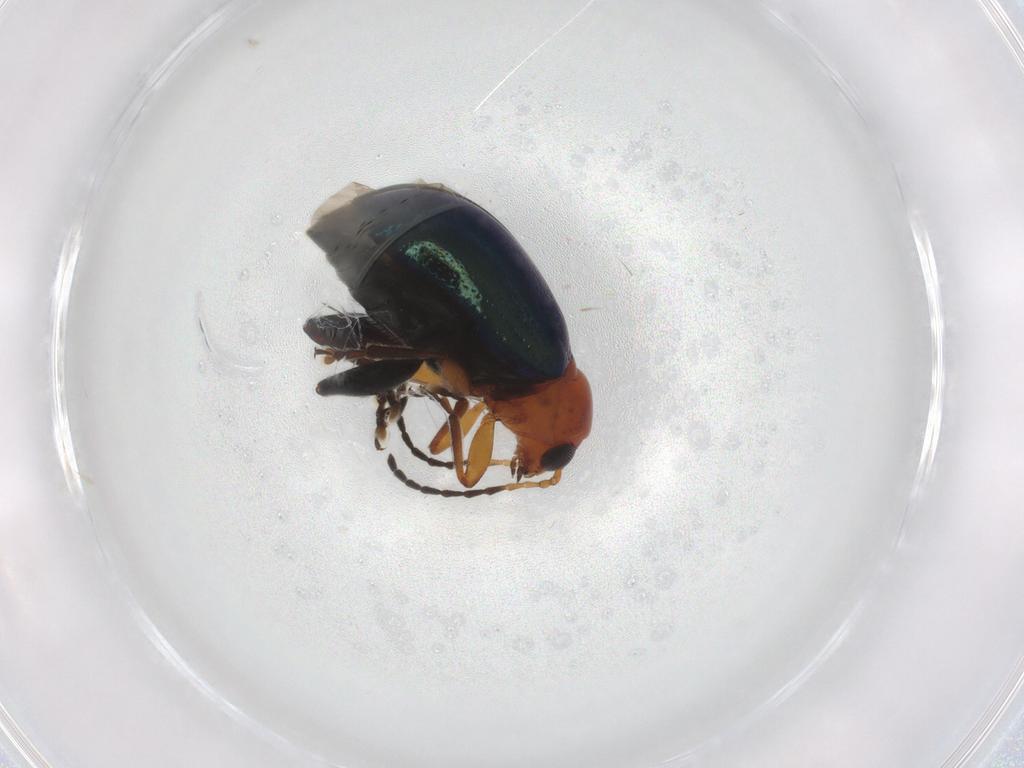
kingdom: Animalia
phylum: Arthropoda
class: Insecta
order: Coleoptera
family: Chrysomelidae
